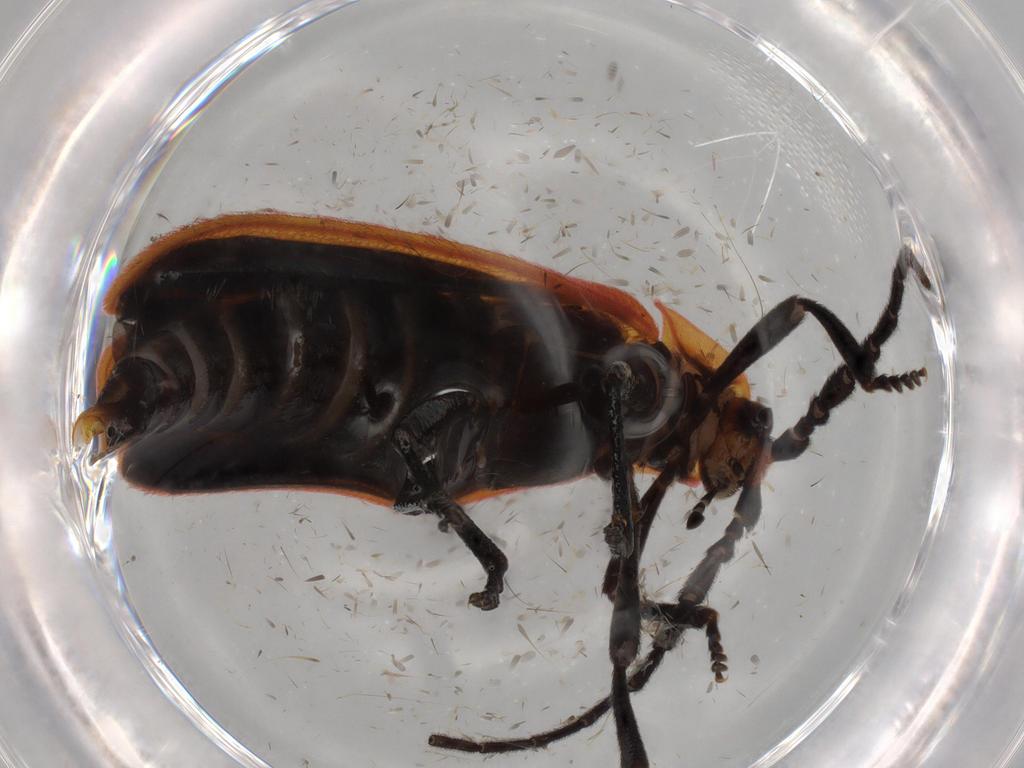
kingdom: Animalia
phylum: Arthropoda
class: Insecta
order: Coleoptera
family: Lycidae
